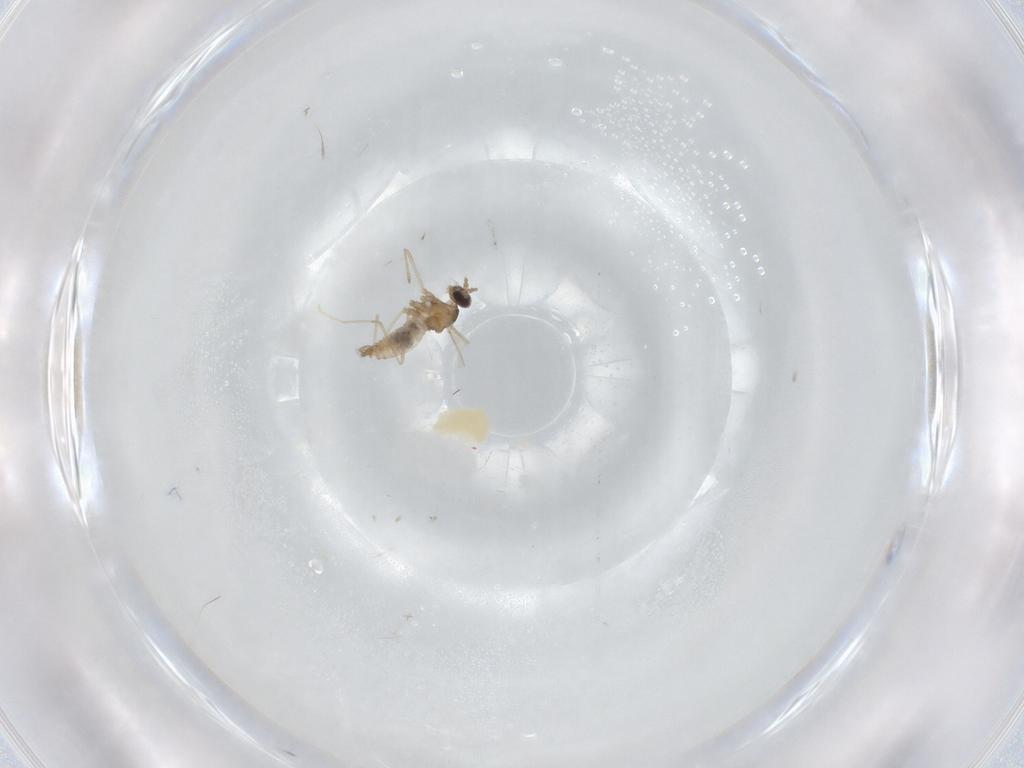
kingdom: Animalia
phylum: Arthropoda
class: Insecta
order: Diptera
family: Cecidomyiidae
